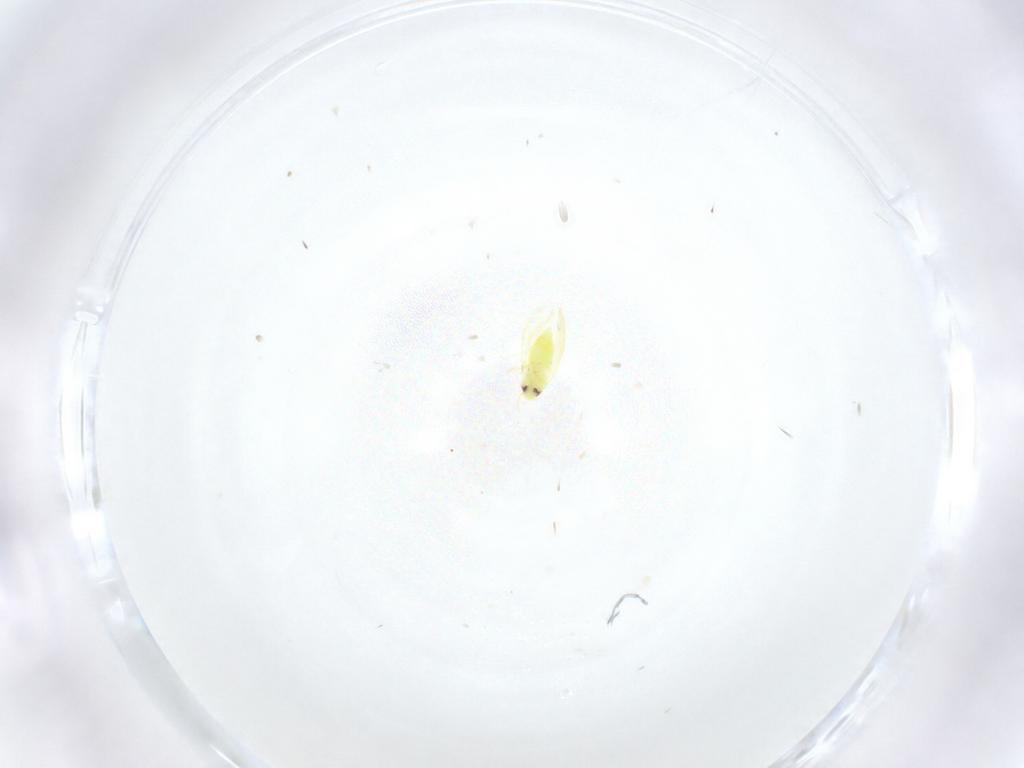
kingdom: Animalia
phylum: Arthropoda
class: Insecta
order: Hemiptera
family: Aleyrodidae
